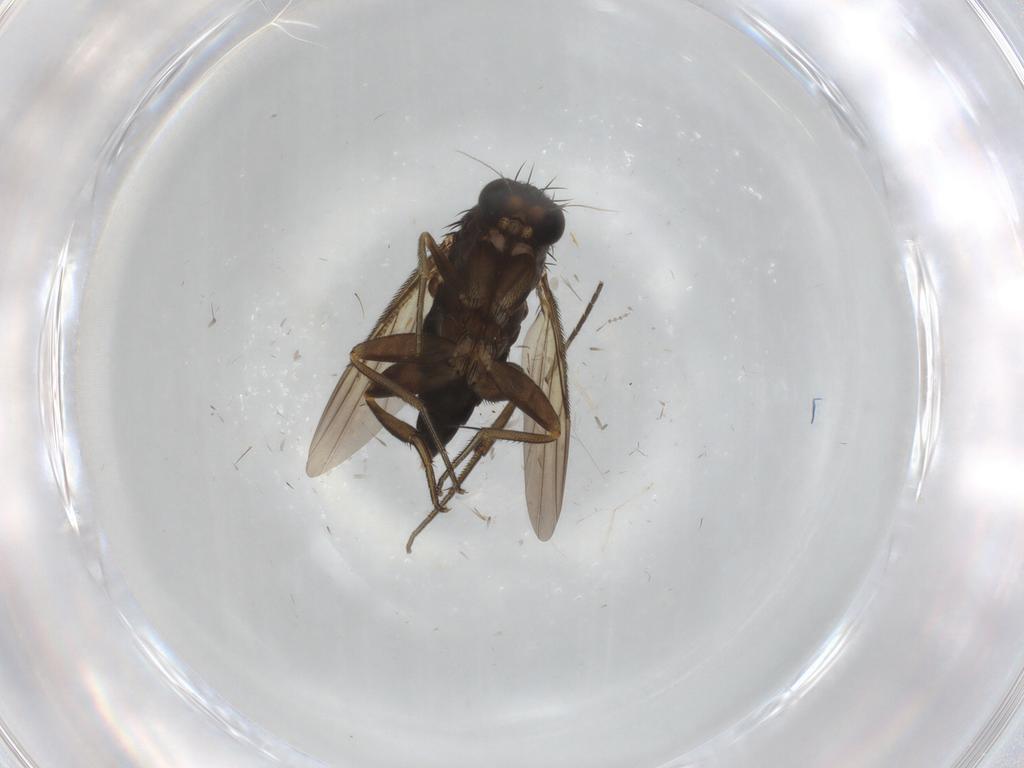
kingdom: Animalia
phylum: Arthropoda
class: Insecta
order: Diptera
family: Phoridae
